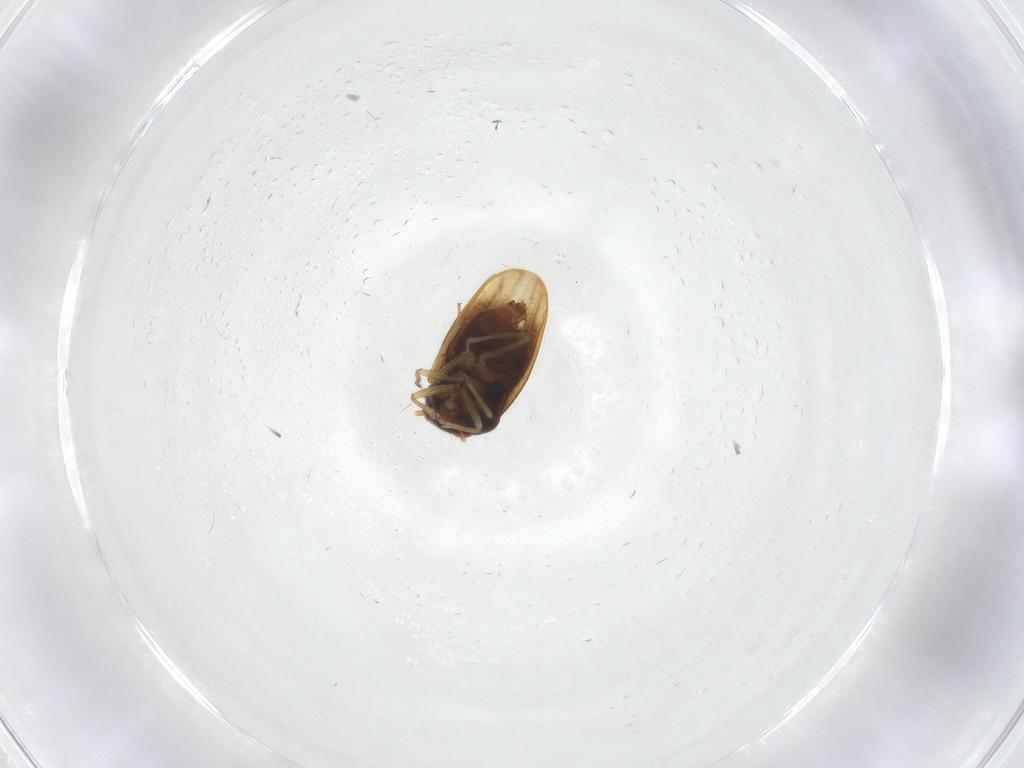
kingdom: Animalia
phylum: Arthropoda
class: Insecta
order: Hemiptera
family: Schizopteridae
